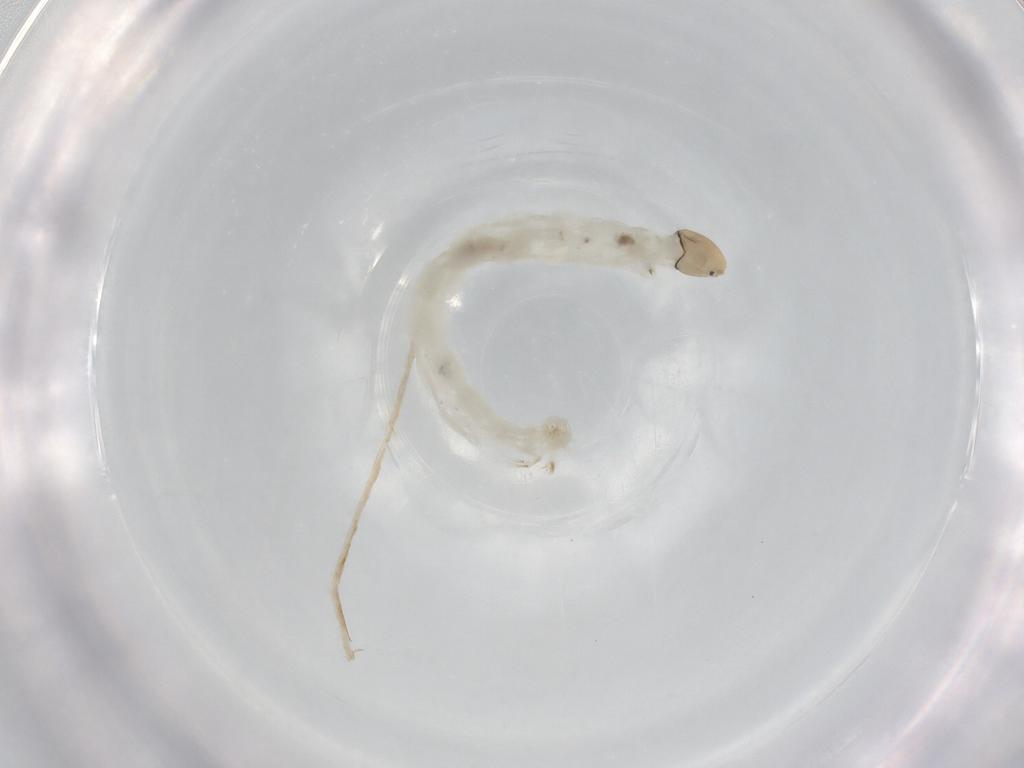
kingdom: Animalia
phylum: Arthropoda
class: Insecta
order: Diptera
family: Chironomidae
